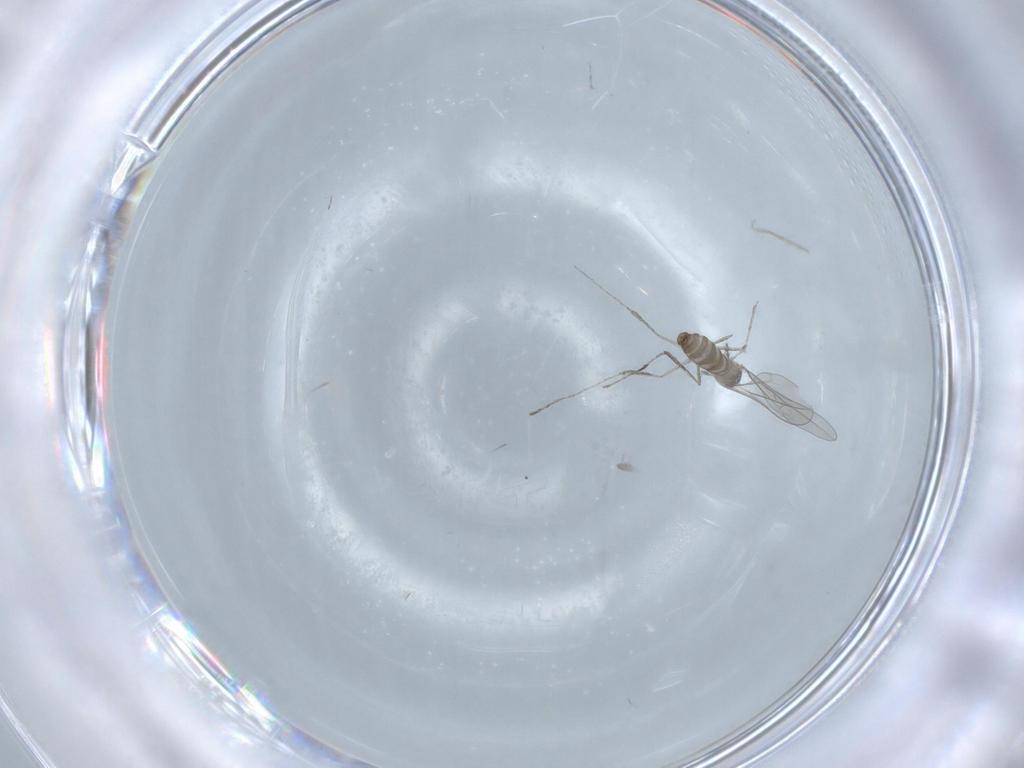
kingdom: Animalia
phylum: Arthropoda
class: Insecta
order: Diptera
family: Cecidomyiidae
